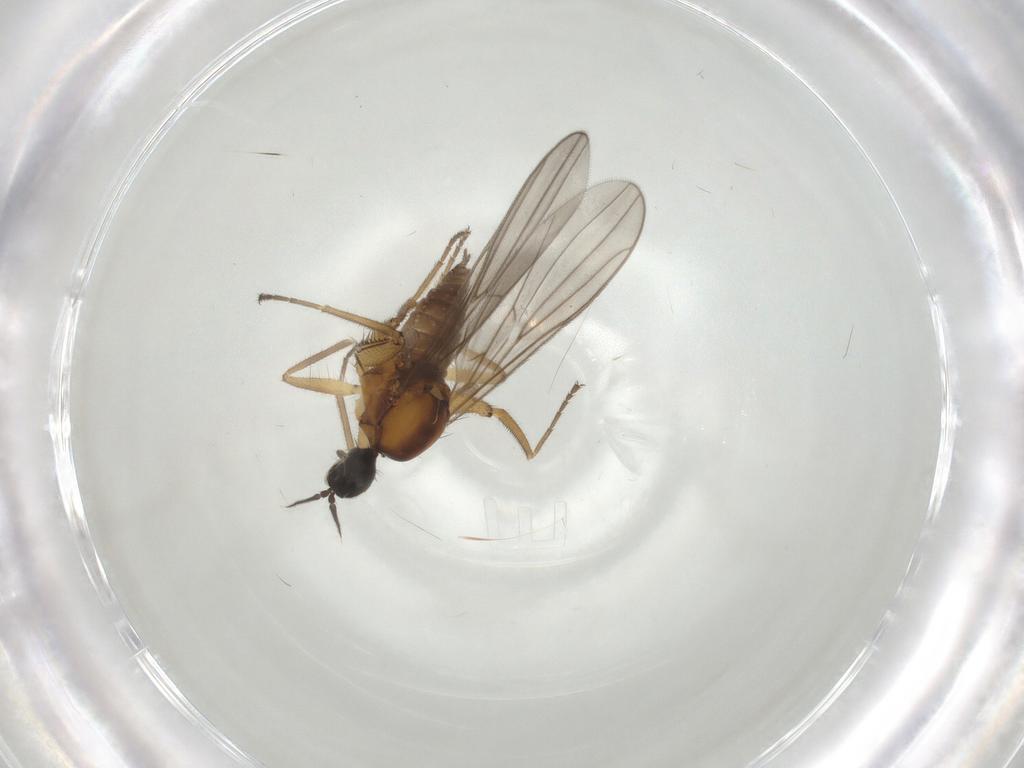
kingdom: Animalia
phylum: Arthropoda
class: Insecta
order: Diptera
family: Hybotidae
